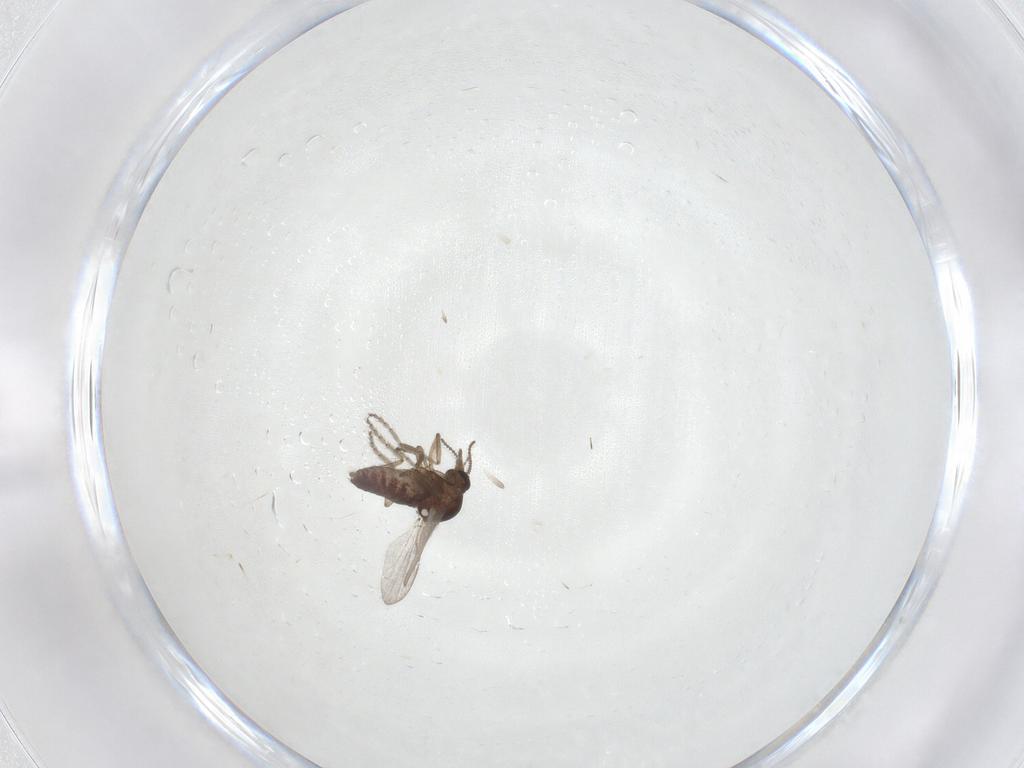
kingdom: Animalia
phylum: Arthropoda
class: Insecta
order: Diptera
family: Ceratopogonidae
